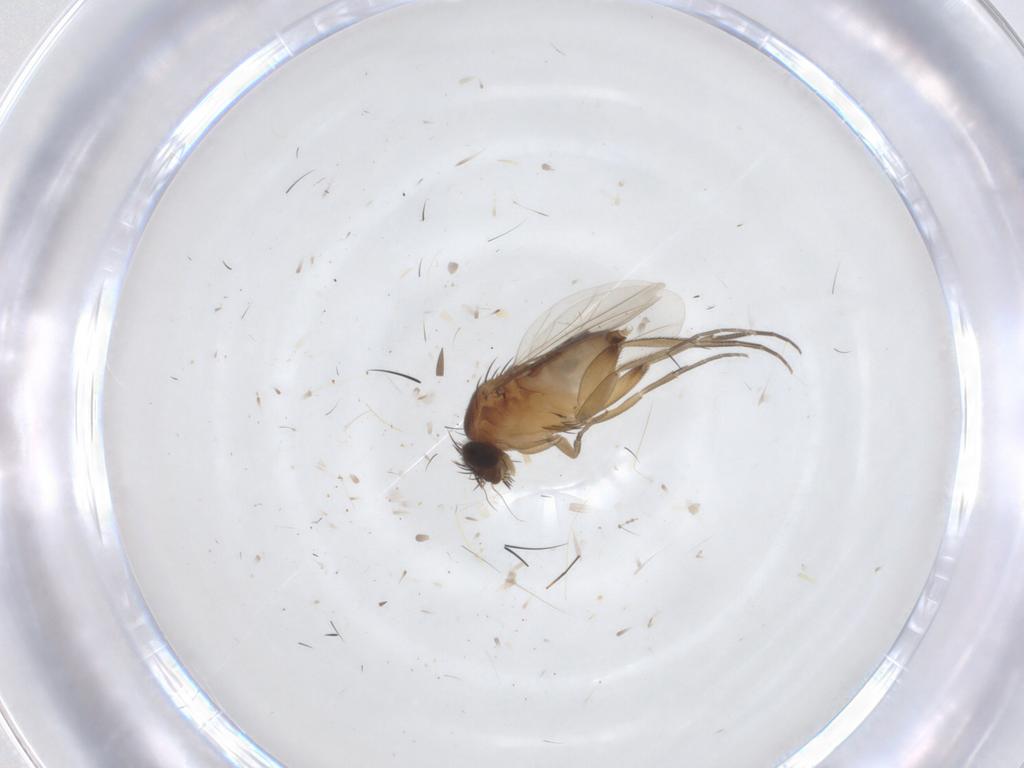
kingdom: Animalia
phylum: Arthropoda
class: Insecta
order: Diptera
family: Phoridae
